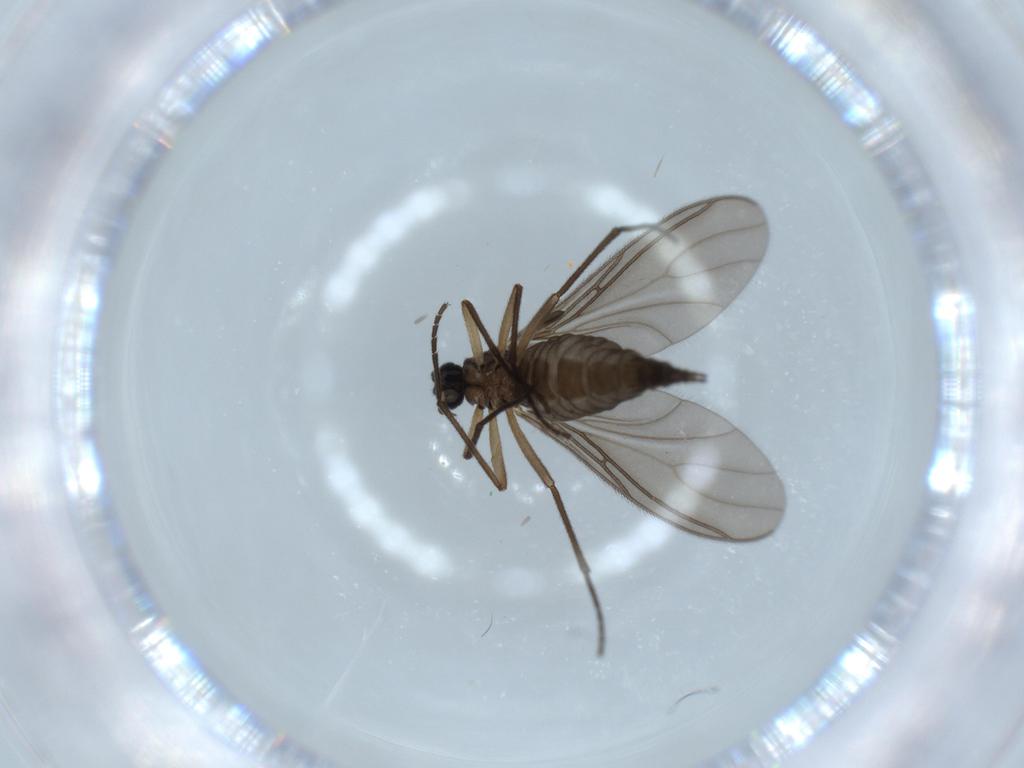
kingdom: Animalia
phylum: Arthropoda
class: Insecta
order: Diptera
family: Sciaridae
